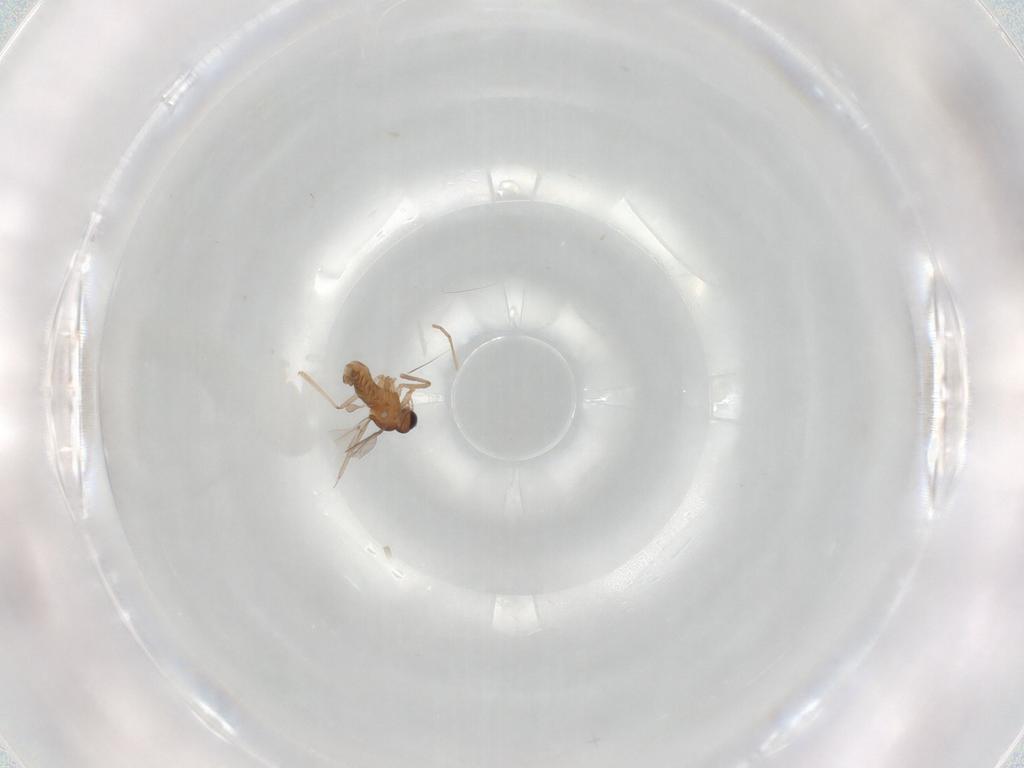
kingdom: Animalia
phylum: Arthropoda
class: Insecta
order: Diptera
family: Cecidomyiidae
